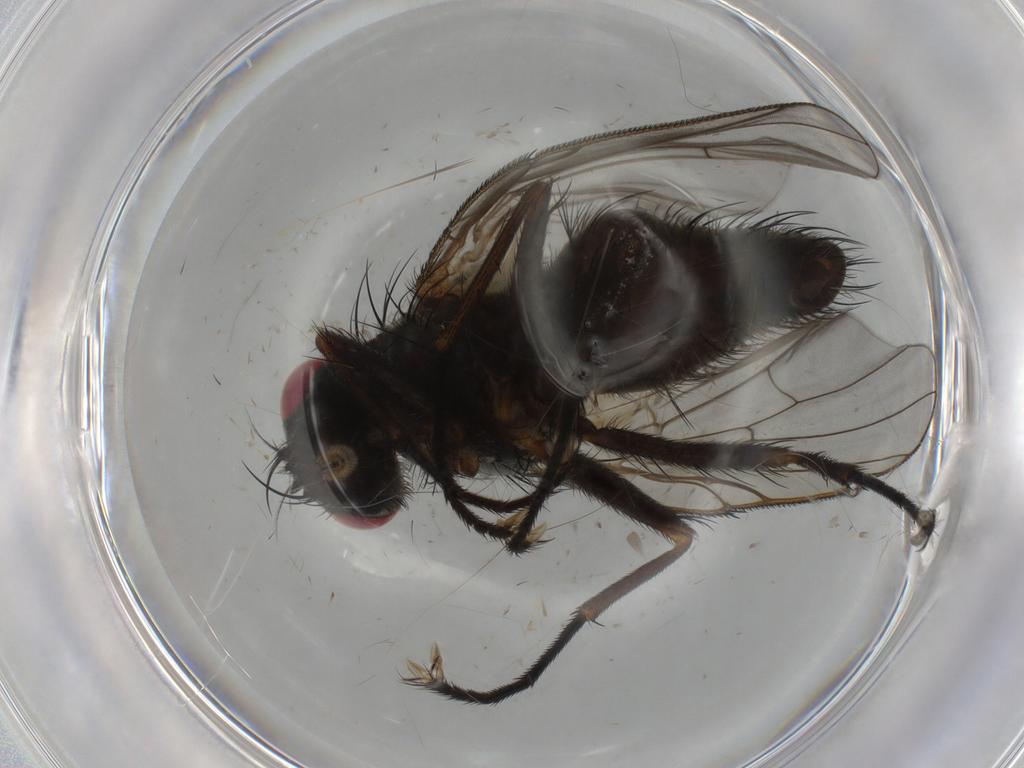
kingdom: Animalia
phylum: Arthropoda
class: Insecta
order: Diptera
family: Muscidae
